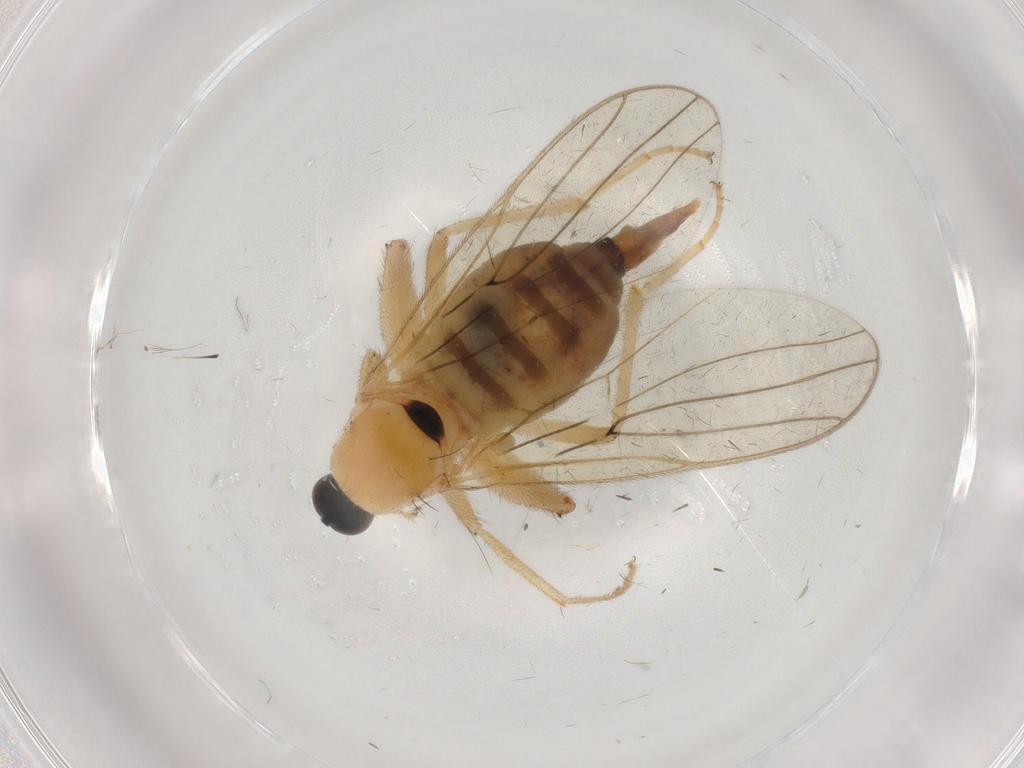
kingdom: Animalia
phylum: Arthropoda
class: Insecta
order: Diptera
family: Hybotidae
